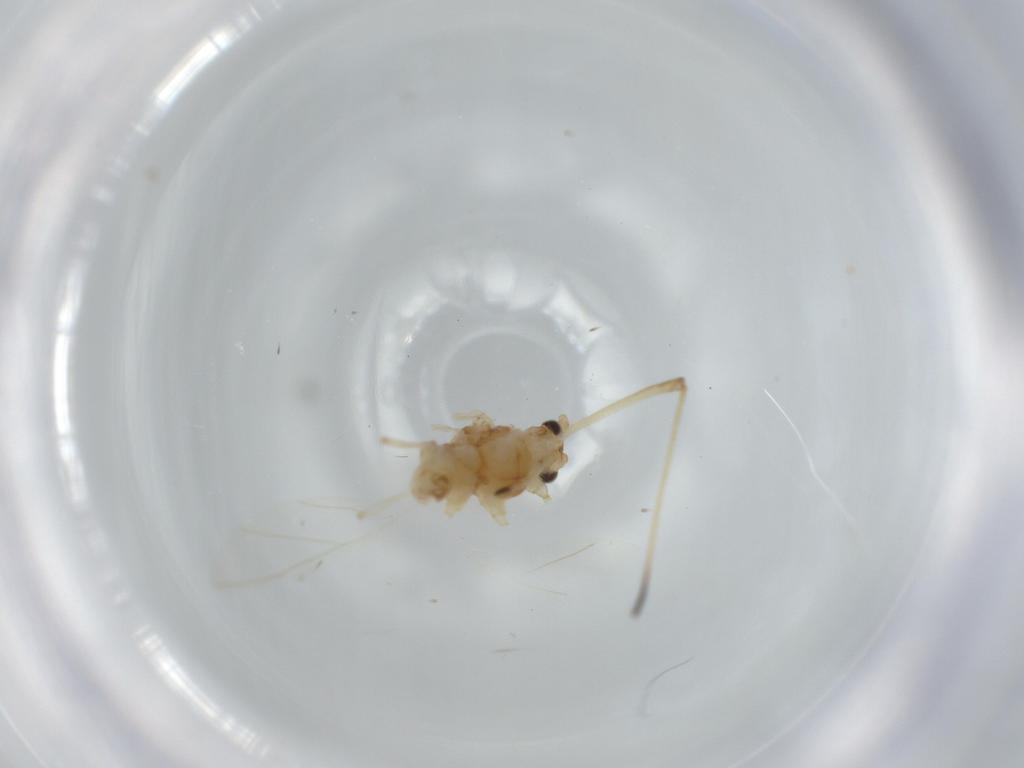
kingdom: Animalia
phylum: Arthropoda
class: Insecta
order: Hemiptera
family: Aphididae
